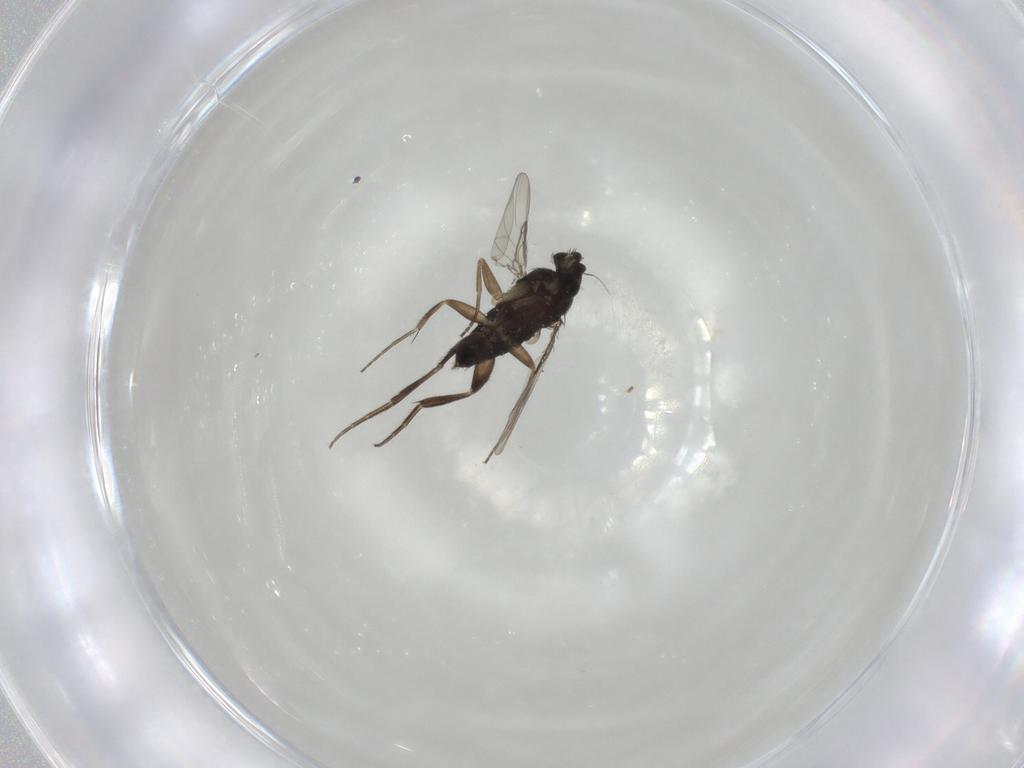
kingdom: Animalia
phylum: Arthropoda
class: Insecta
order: Diptera
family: Phoridae
